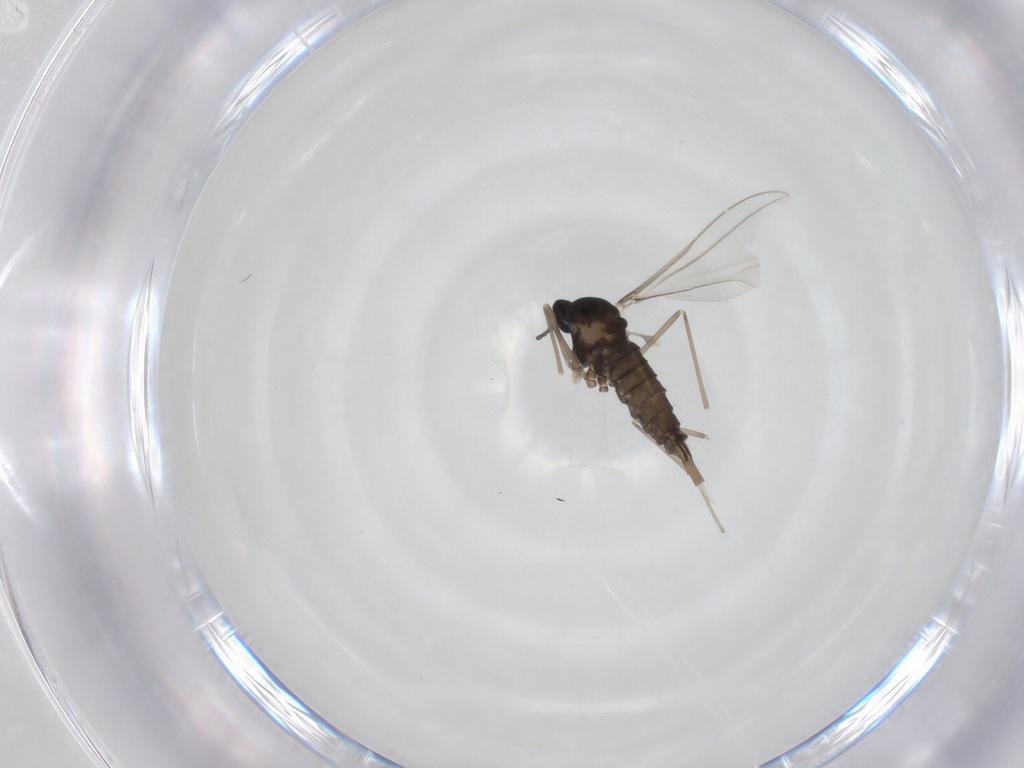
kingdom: Animalia
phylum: Arthropoda
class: Insecta
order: Diptera
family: Cecidomyiidae
